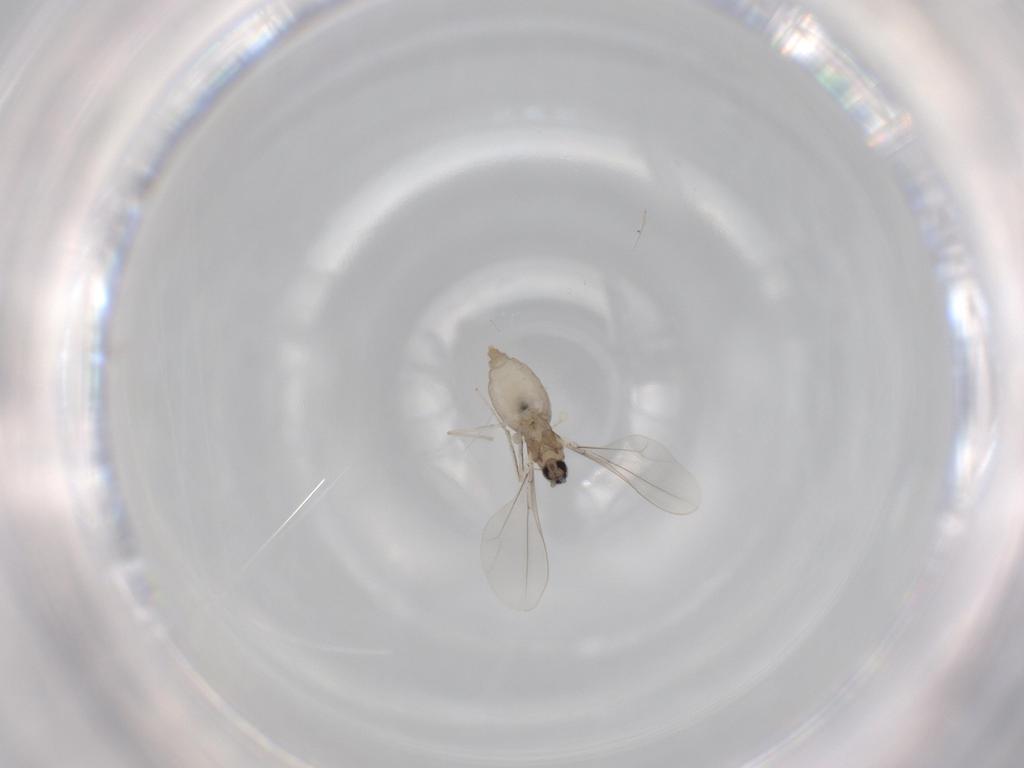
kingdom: Animalia
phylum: Arthropoda
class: Insecta
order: Diptera
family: Cecidomyiidae
